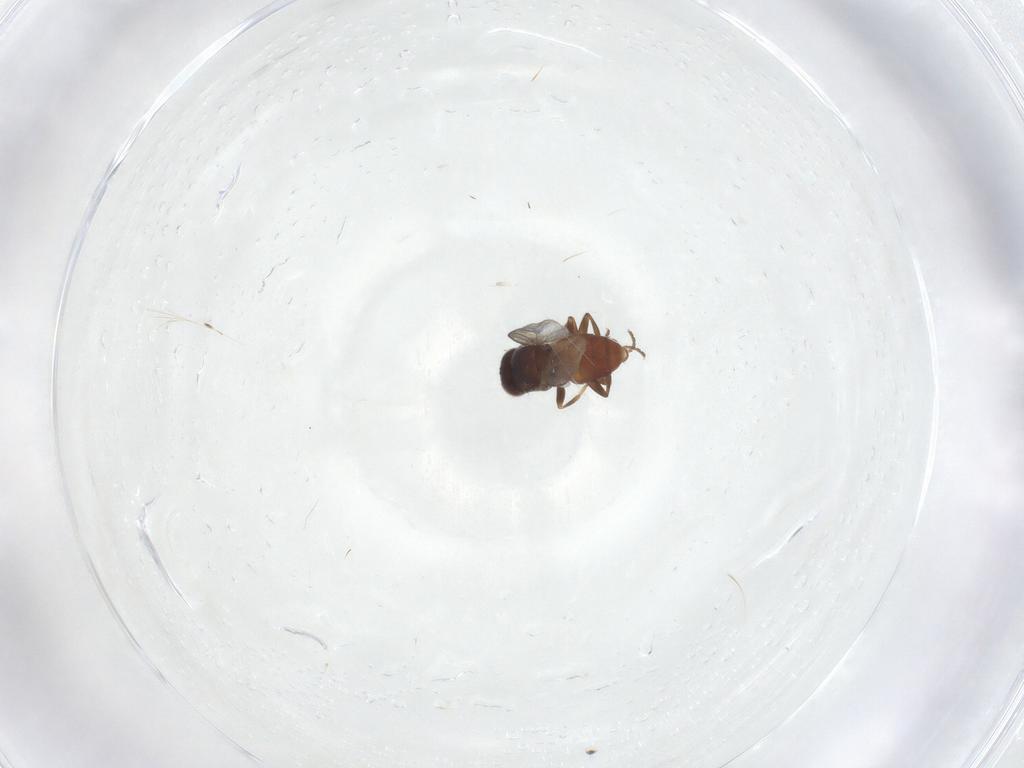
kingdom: Animalia
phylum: Arthropoda
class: Insecta
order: Diptera
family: Chloropidae
